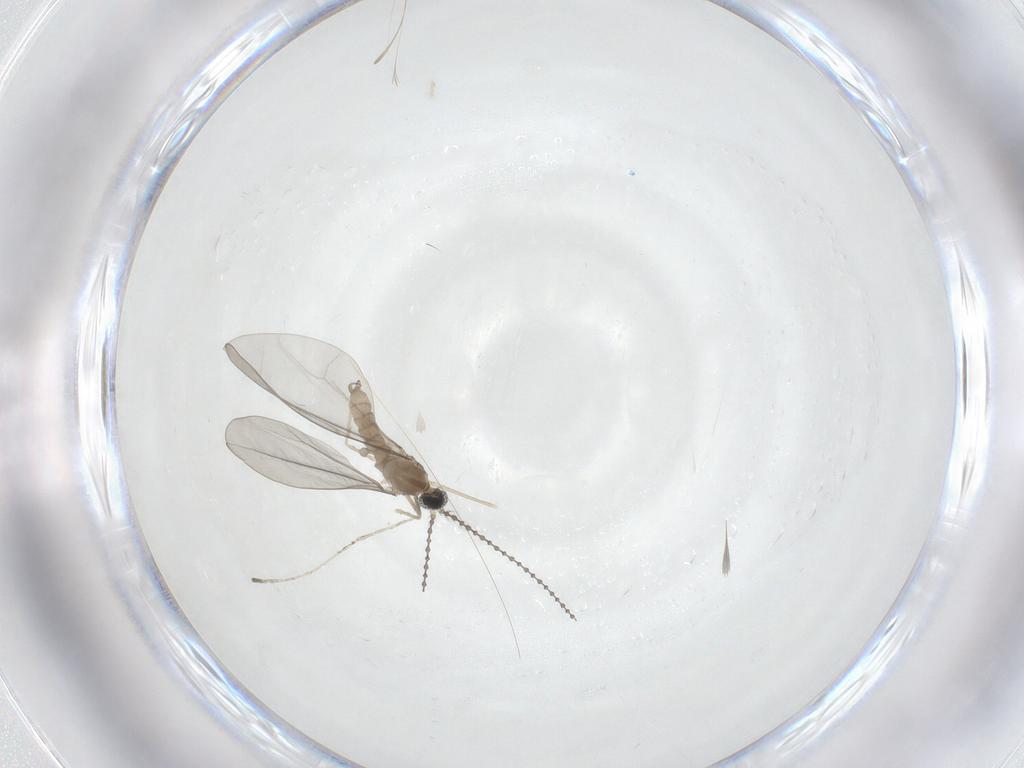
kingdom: Animalia
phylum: Arthropoda
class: Insecta
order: Diptera
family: Cecidomyiidae
